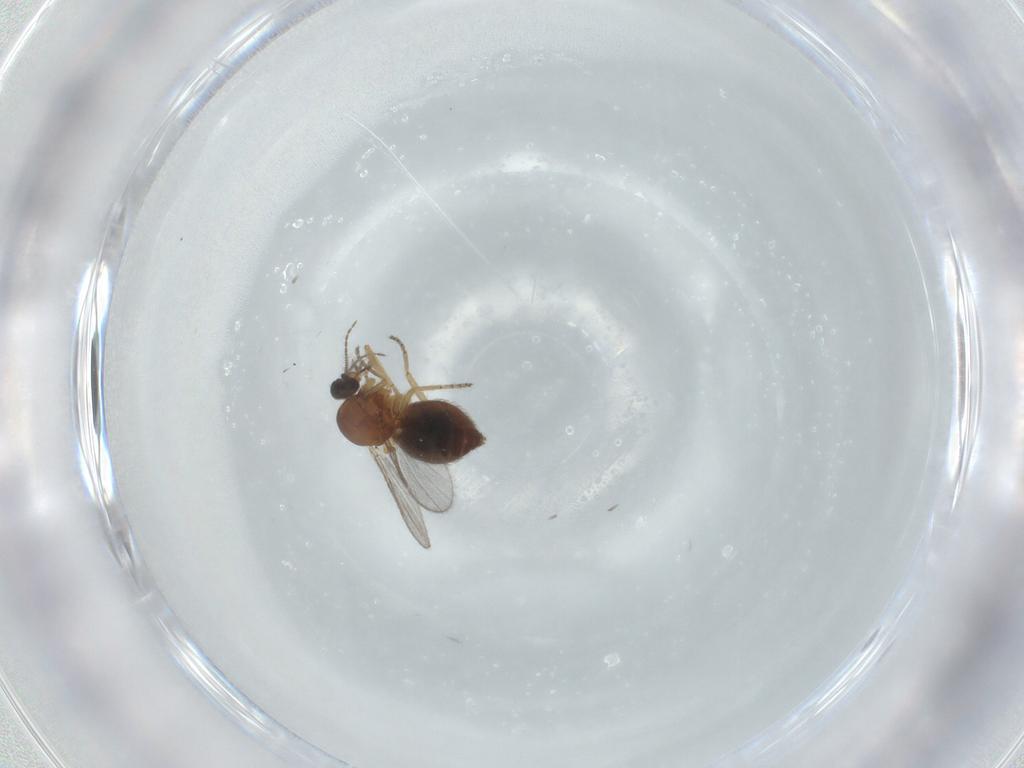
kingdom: Animalia
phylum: Arthropoda
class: Insecta
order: Diptera
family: Ceratopogonidae
